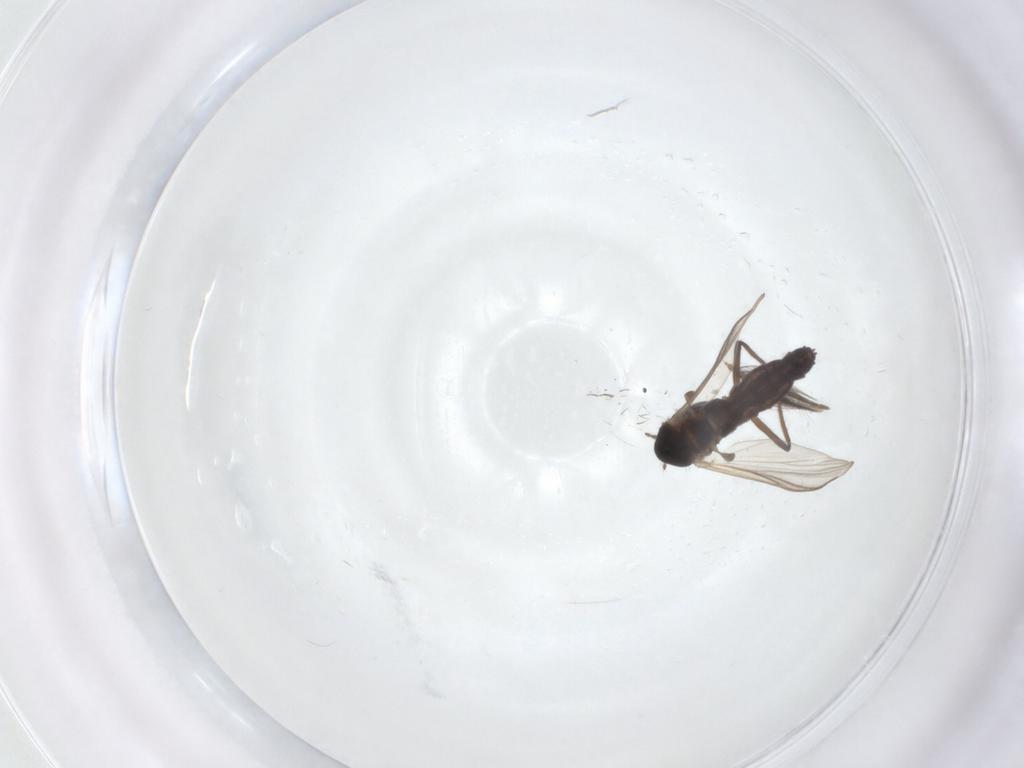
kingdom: Animalia
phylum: Arthropoda
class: Insecta
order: Diptera
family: Chironomidae
